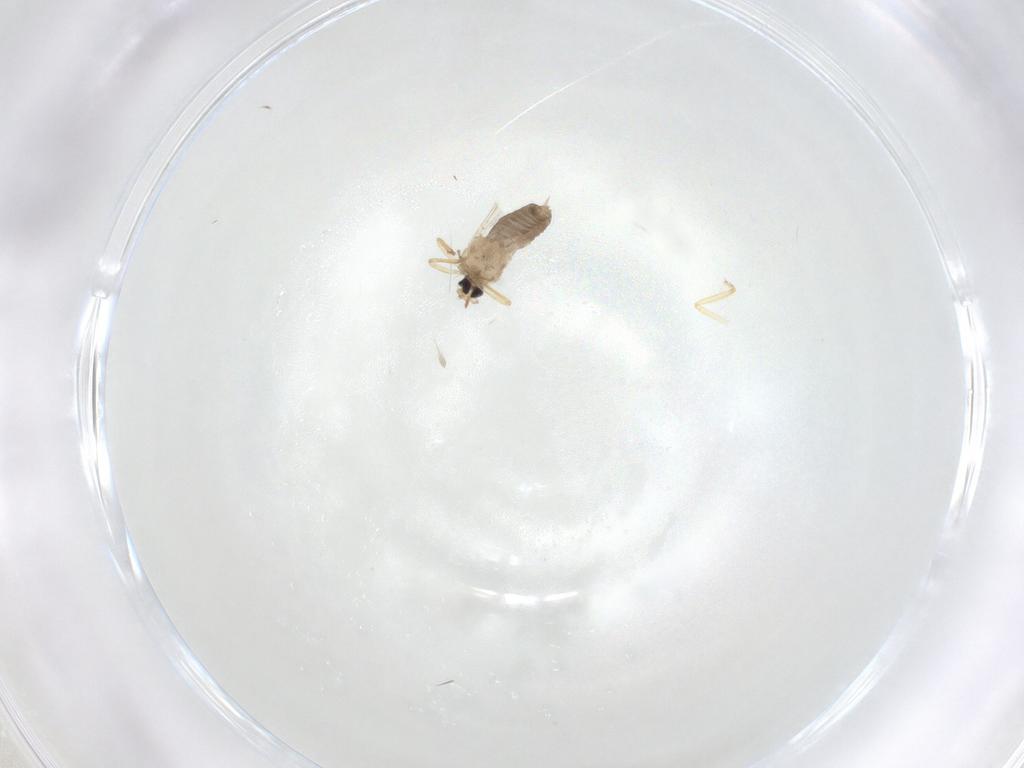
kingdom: Animalia
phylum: Arthropoda
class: Insecta
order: Diptera
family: Ceratopogonidae
